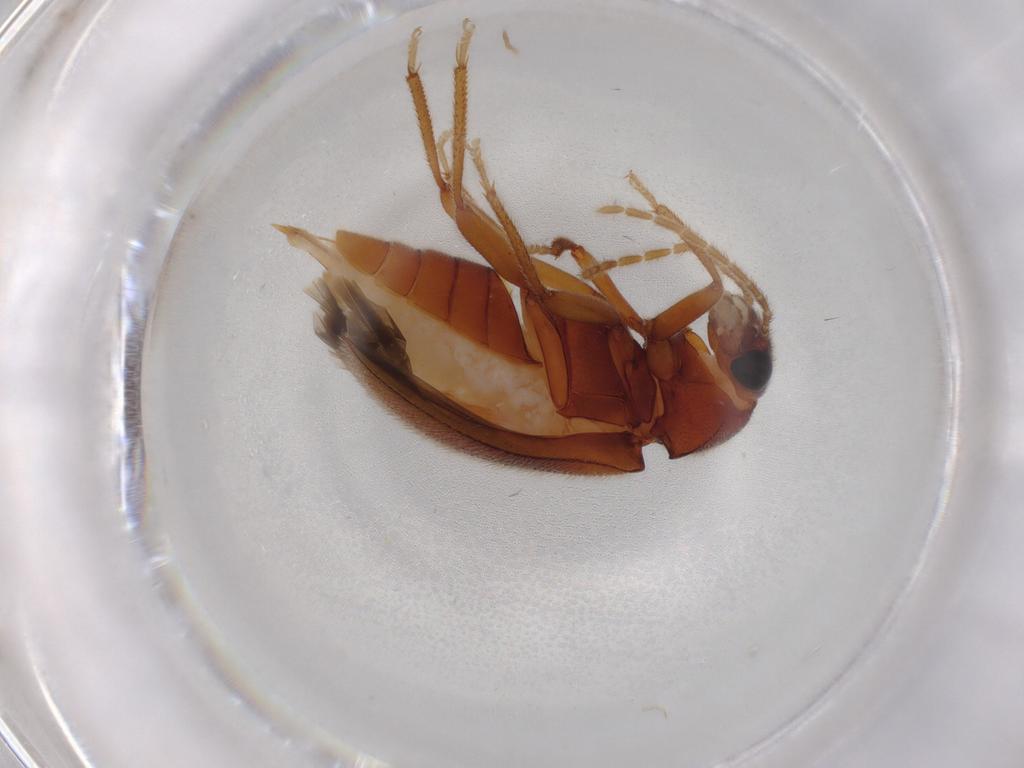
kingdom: Animalia
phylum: Arthropoda
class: Insecta
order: Coleoptera
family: Ptilodactylidae
